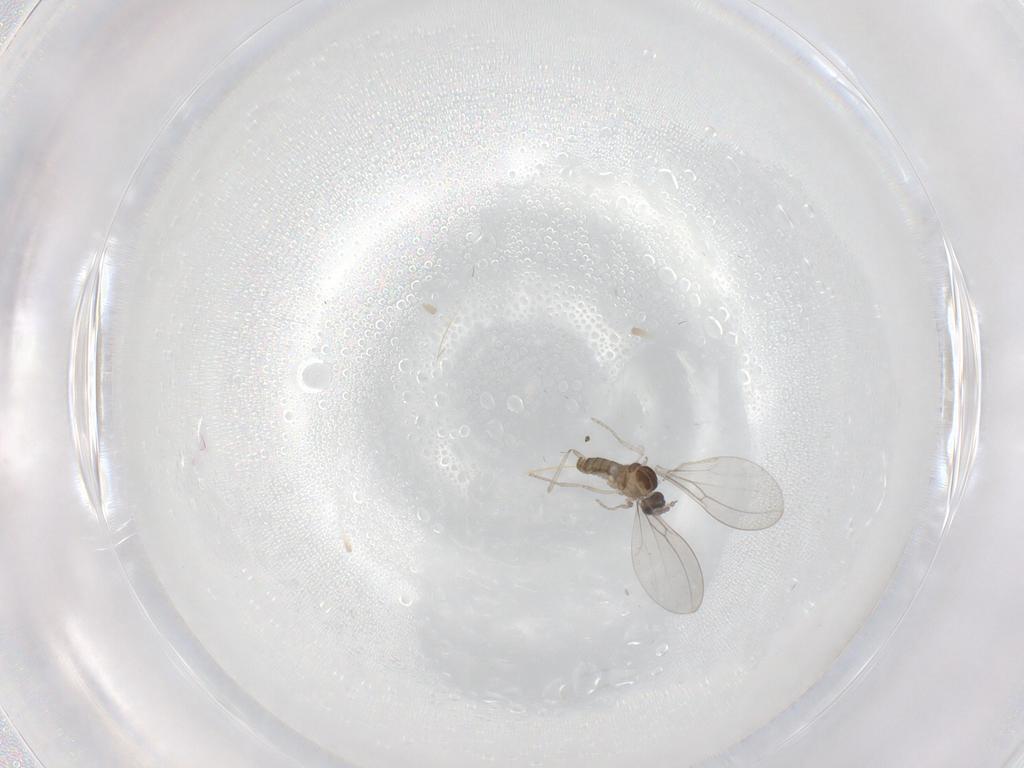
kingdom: Animalia
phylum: Arthropoda
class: Insecta
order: Diptera
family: Cecidomyiidae
